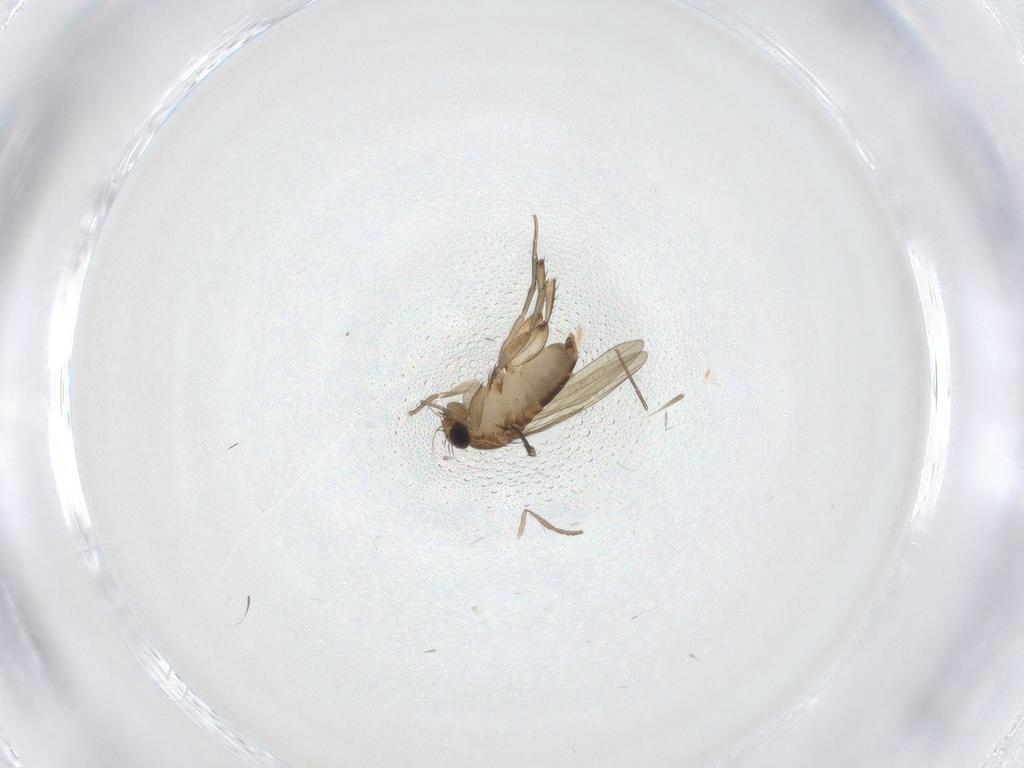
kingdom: Animalia
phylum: Arthropoda
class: Insecta
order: Diptera
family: Phoridae
